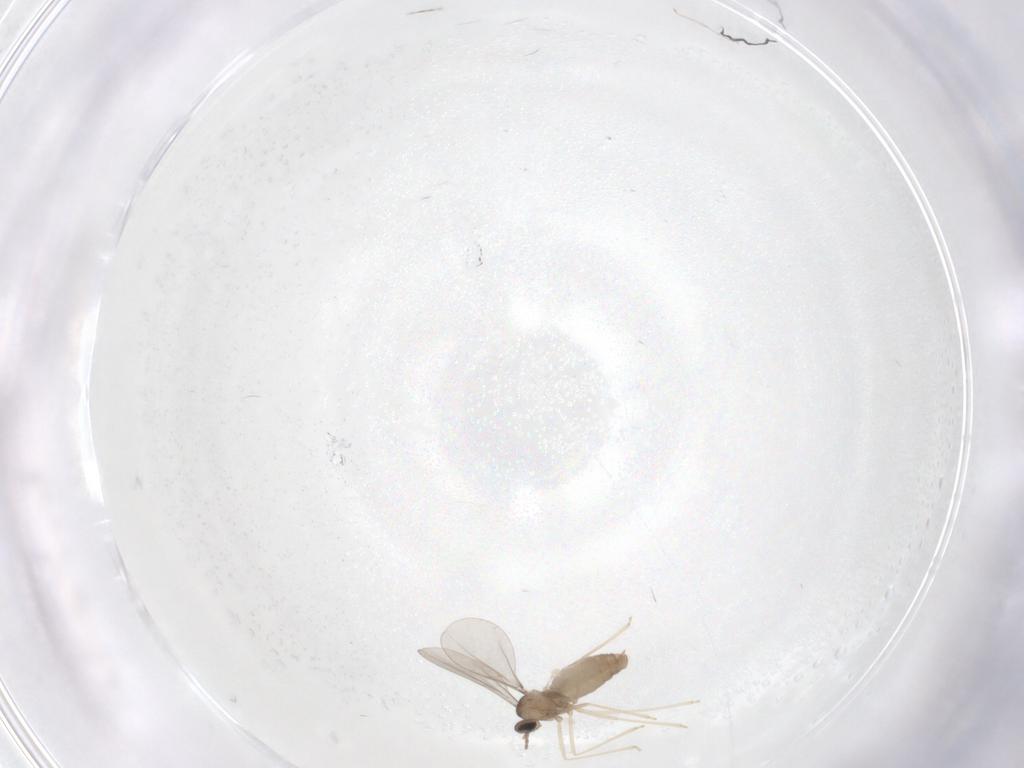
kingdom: Animalia
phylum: Arthropoda
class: Insecta
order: Diptera
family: Cecidomyiidae
